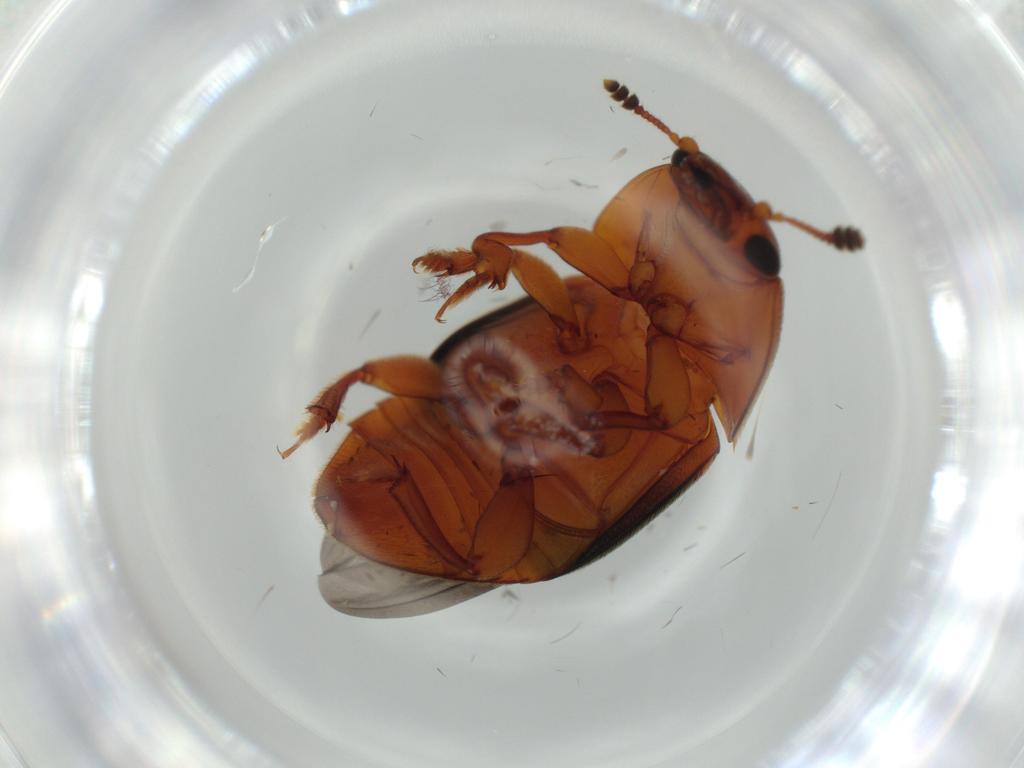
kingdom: Animalia
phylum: Arthropoda
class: Insecta
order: Coleoptera
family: Nitidulidae
